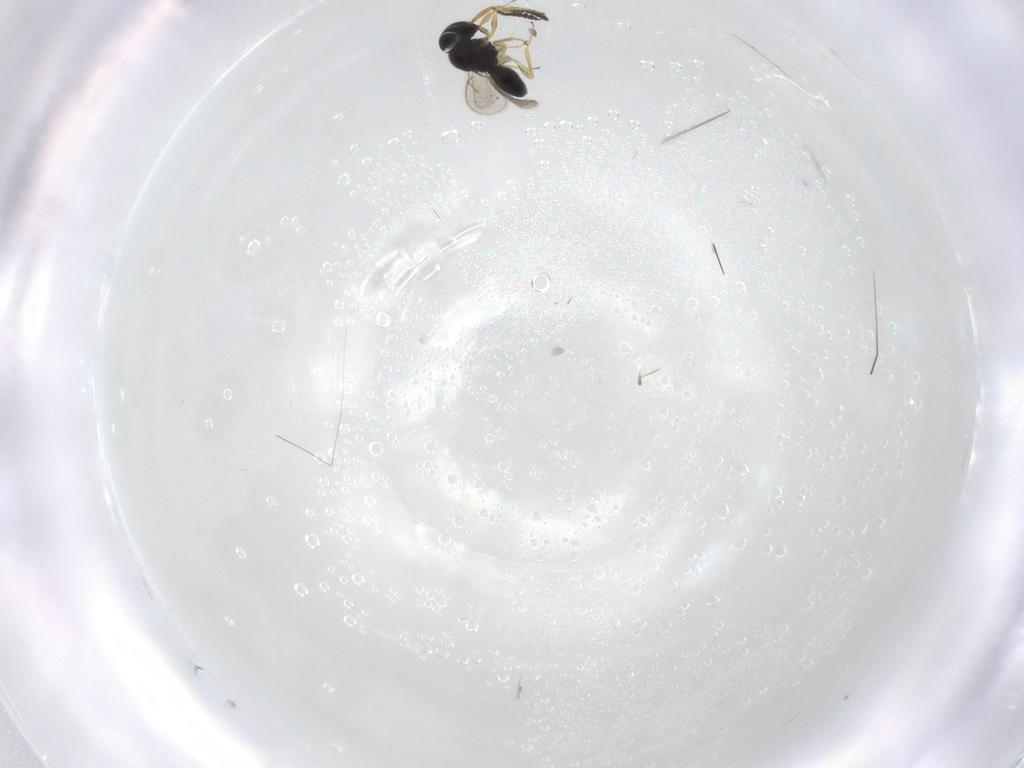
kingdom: Animalia
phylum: Arthropoda
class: Insecta
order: Hymenoptera
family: Scelionidae
